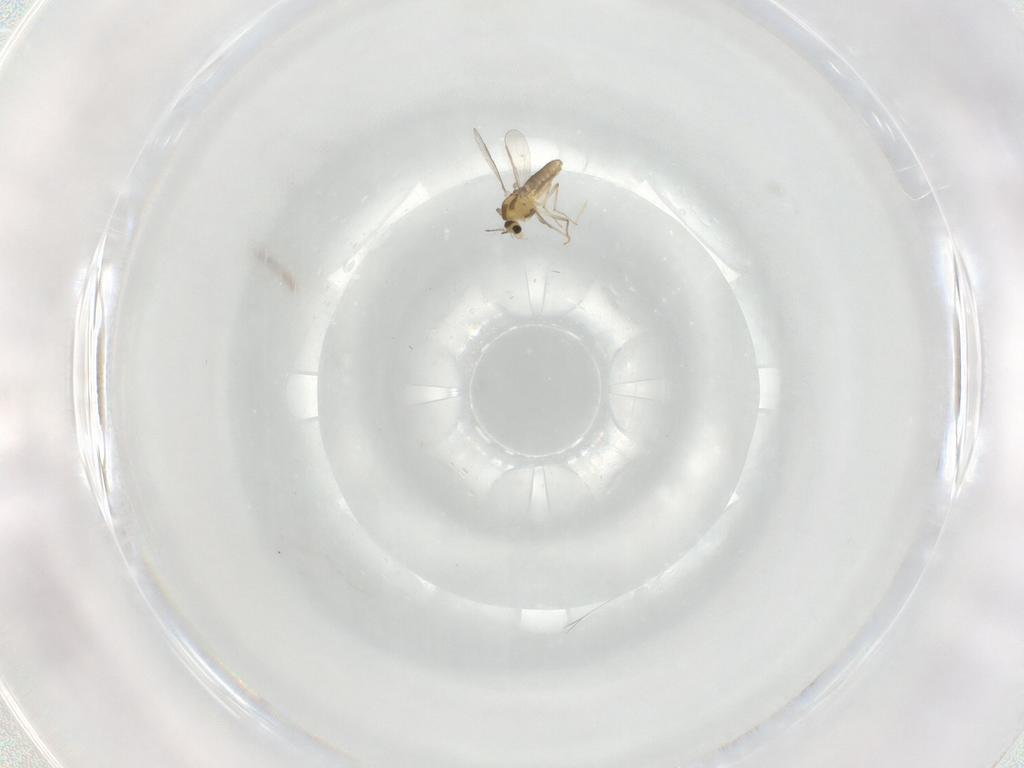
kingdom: Animalia
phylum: Arthropoda
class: Insecta
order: Diptera
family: Chironomidae
